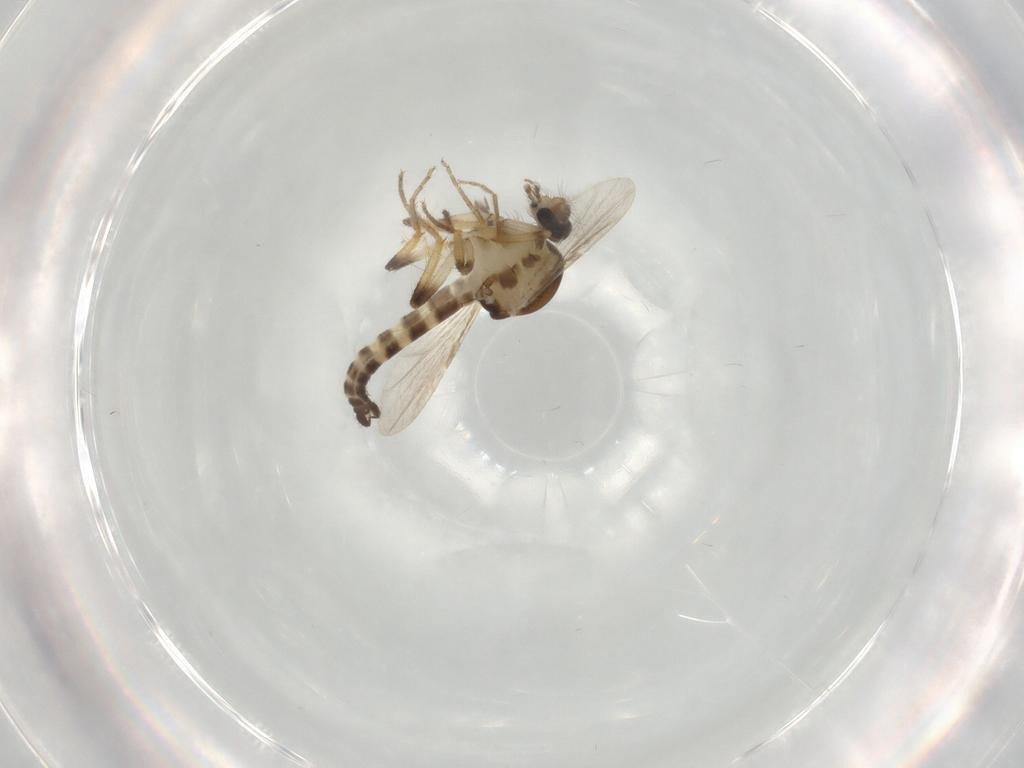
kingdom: Animalia
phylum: Arthropoda
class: Insecta
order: Diptera
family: Ceratopogonidae
